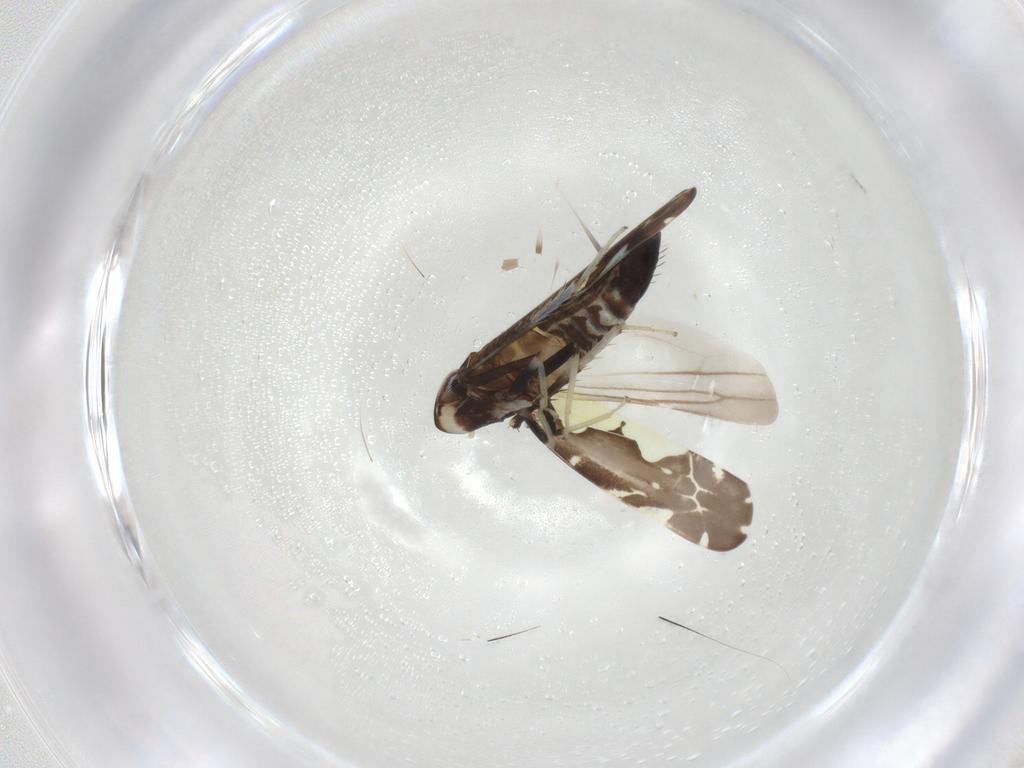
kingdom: Animalia
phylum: Arthropoda
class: Insecta
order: Hemiptera
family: Cicadellidae
